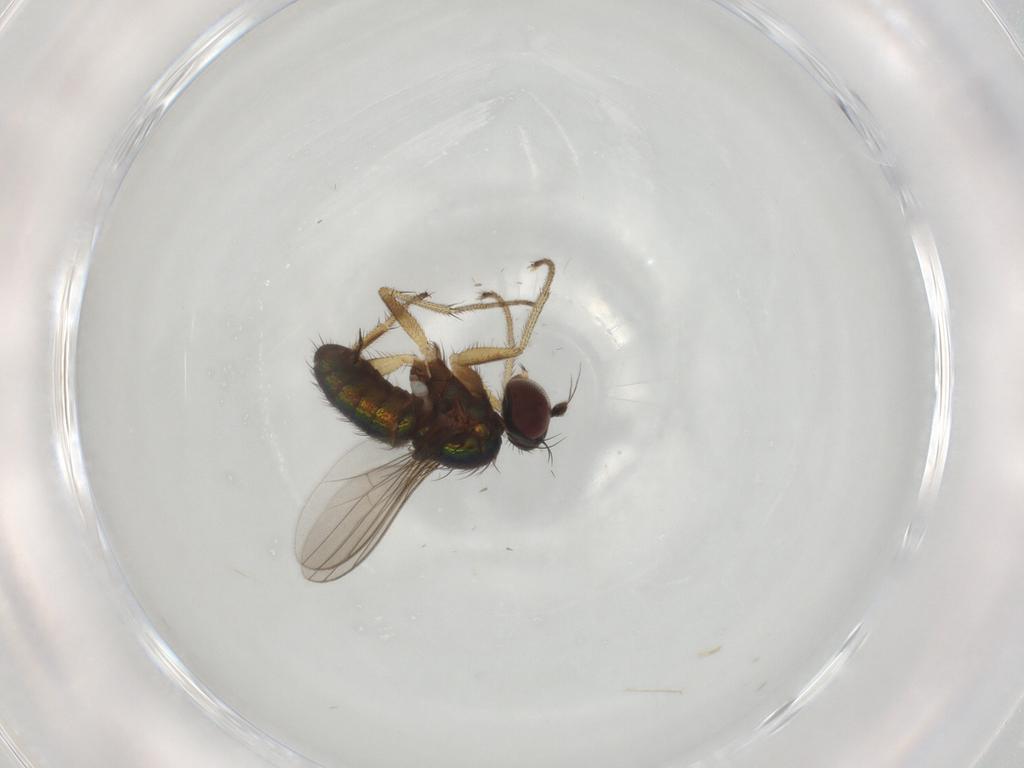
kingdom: Animalia
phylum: Arthropoda
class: Insecta
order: Diptera
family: Dolichopodidae
